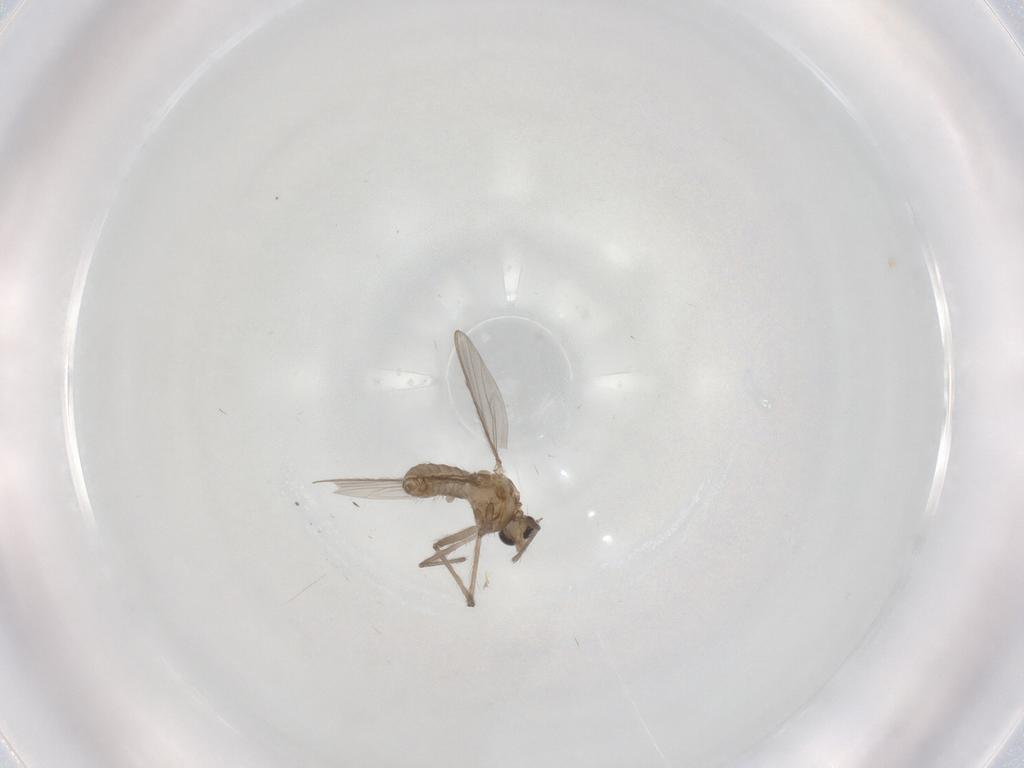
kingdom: Animalia
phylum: Arthropoda
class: Insecta
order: Diptera
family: Chironomidae
